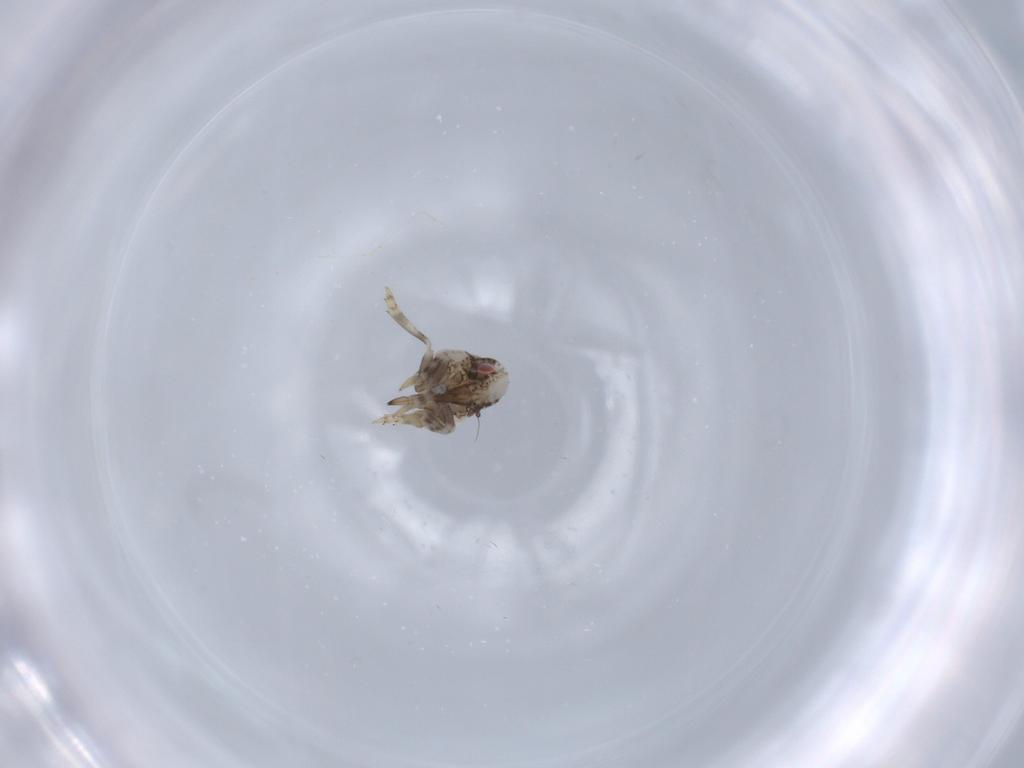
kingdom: Animalia
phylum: Arthropoda
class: Insecta
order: Hemiptera
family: Acanaloniidae
